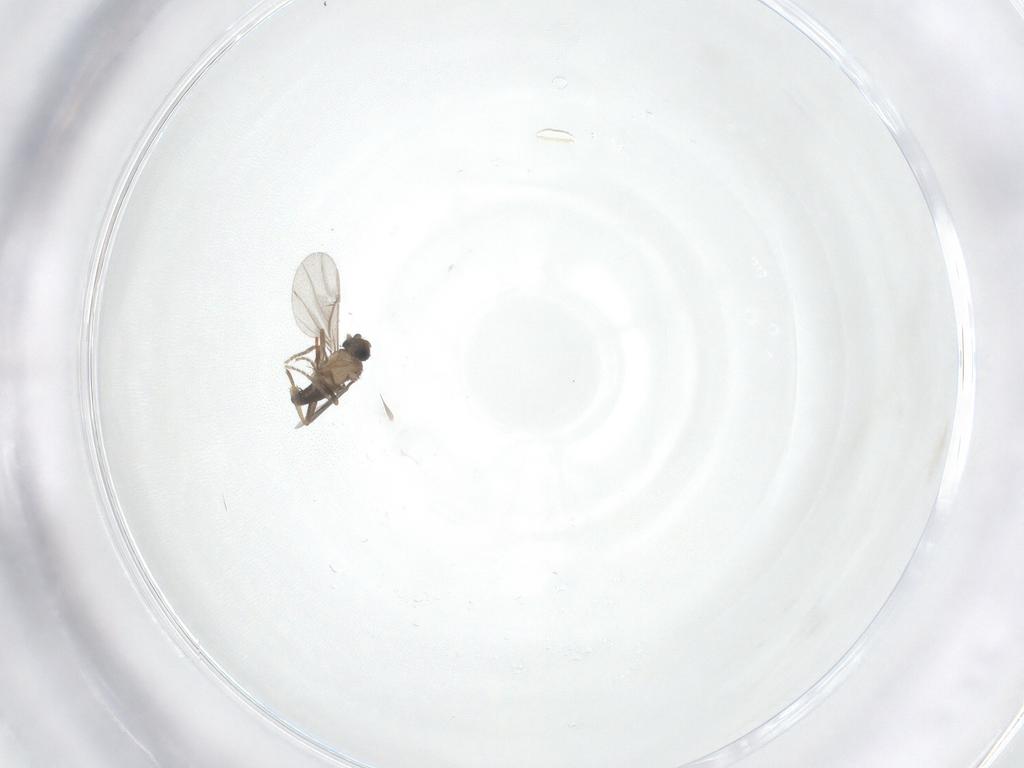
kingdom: Animalia
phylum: Arthropoda
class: Insecta
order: Diptera
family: Phoridae
